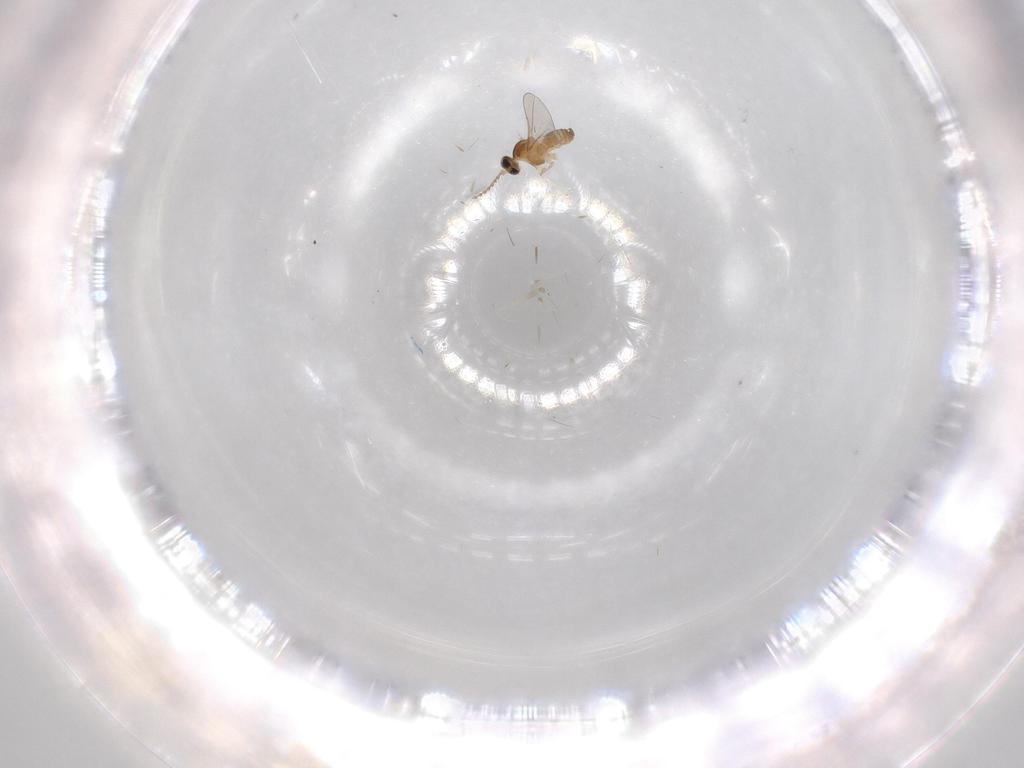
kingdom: Animalia
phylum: Arthropoda
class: Insecta
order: Diptera
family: Cecidomyiidae
